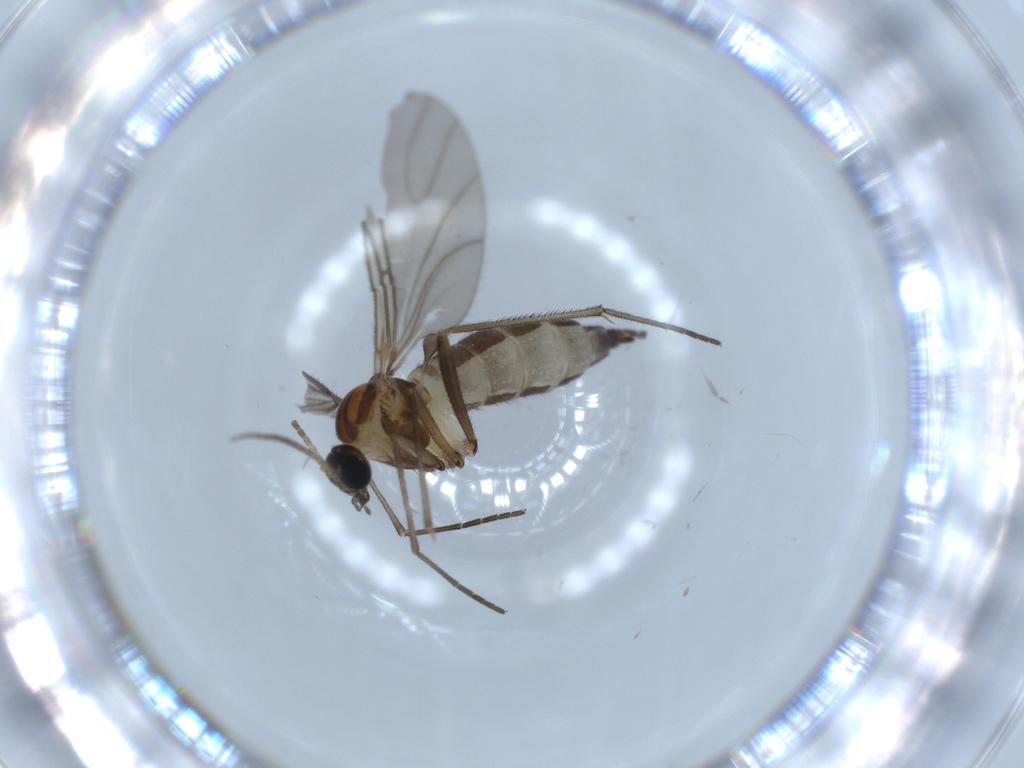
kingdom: Animalia
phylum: Arthropoda
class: Insecta
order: Diptera
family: Sciaridae
